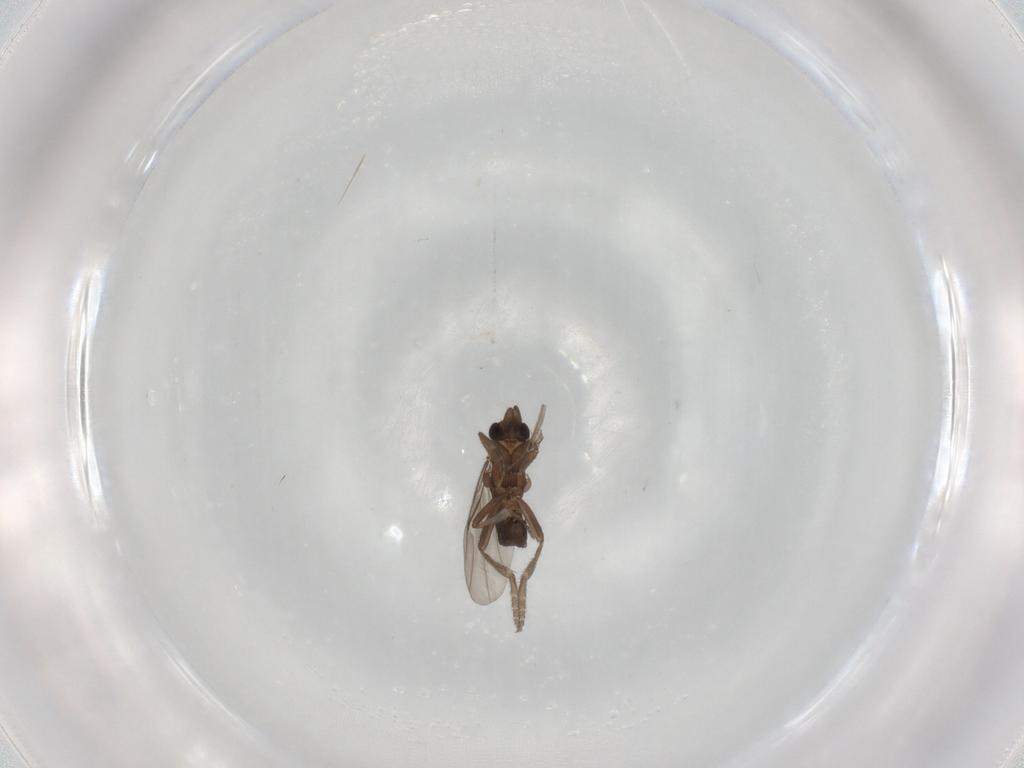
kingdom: Animalia
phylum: Arthropoda
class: Insecta
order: Diptera
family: Phoridae
